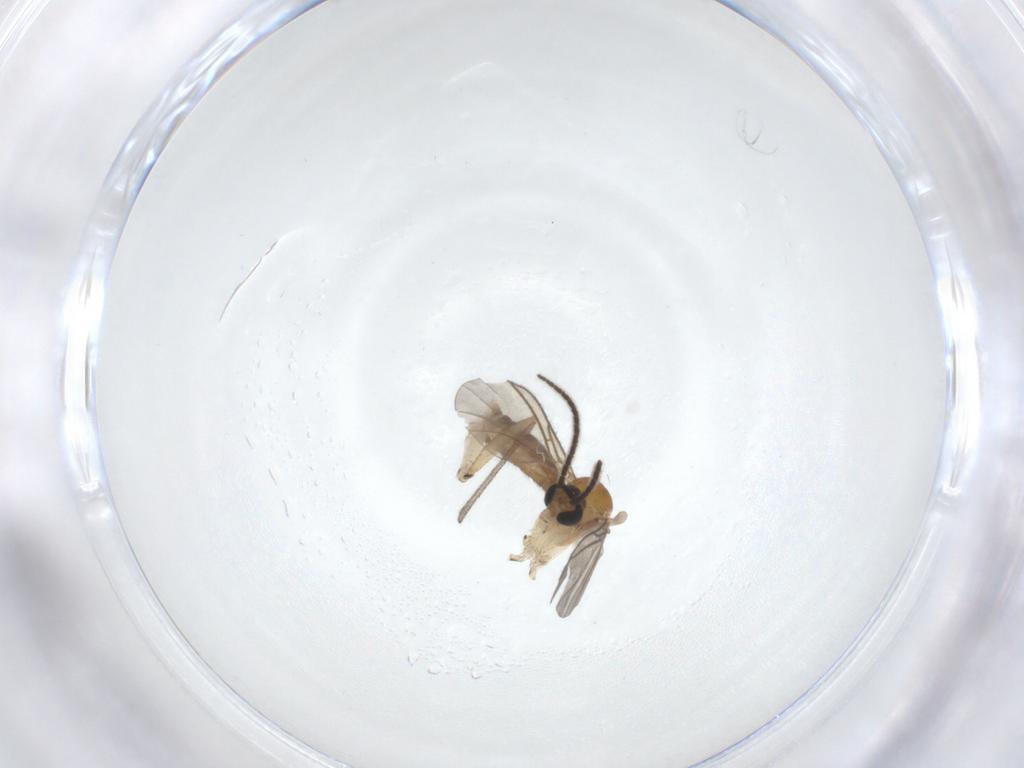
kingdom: Animalia
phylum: Arthropoda
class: Insecta
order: Diptera
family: Sciaridae
